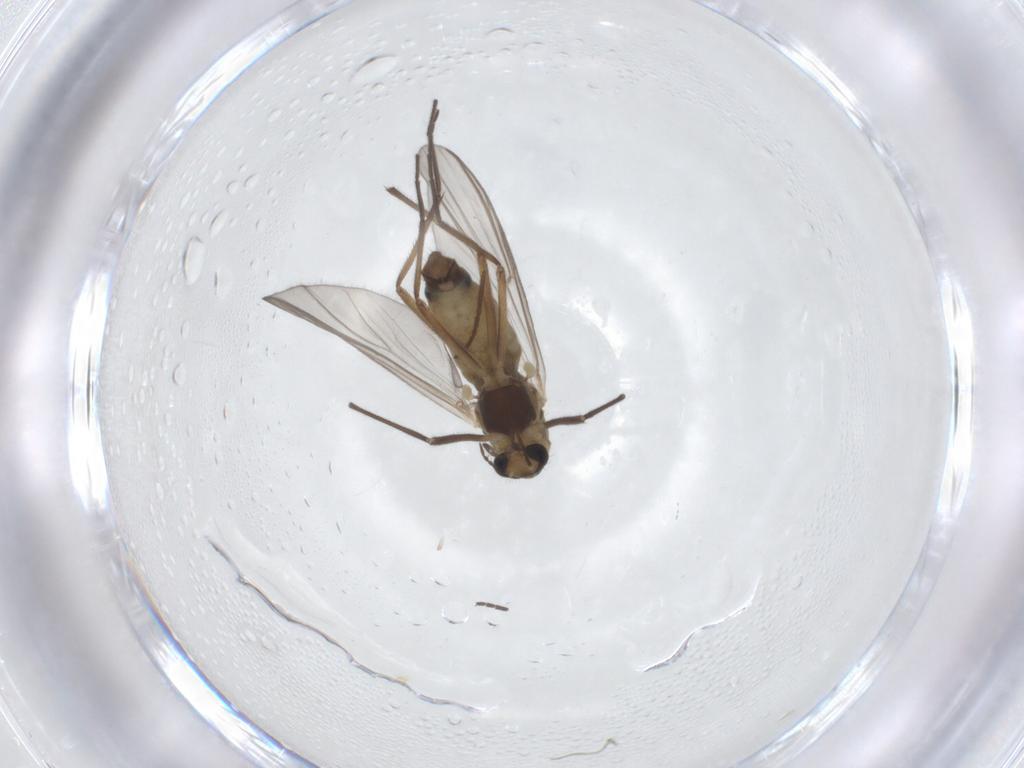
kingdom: Animalia
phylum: Arthropoda
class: Insecta
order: Diptera
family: Chironomidae
